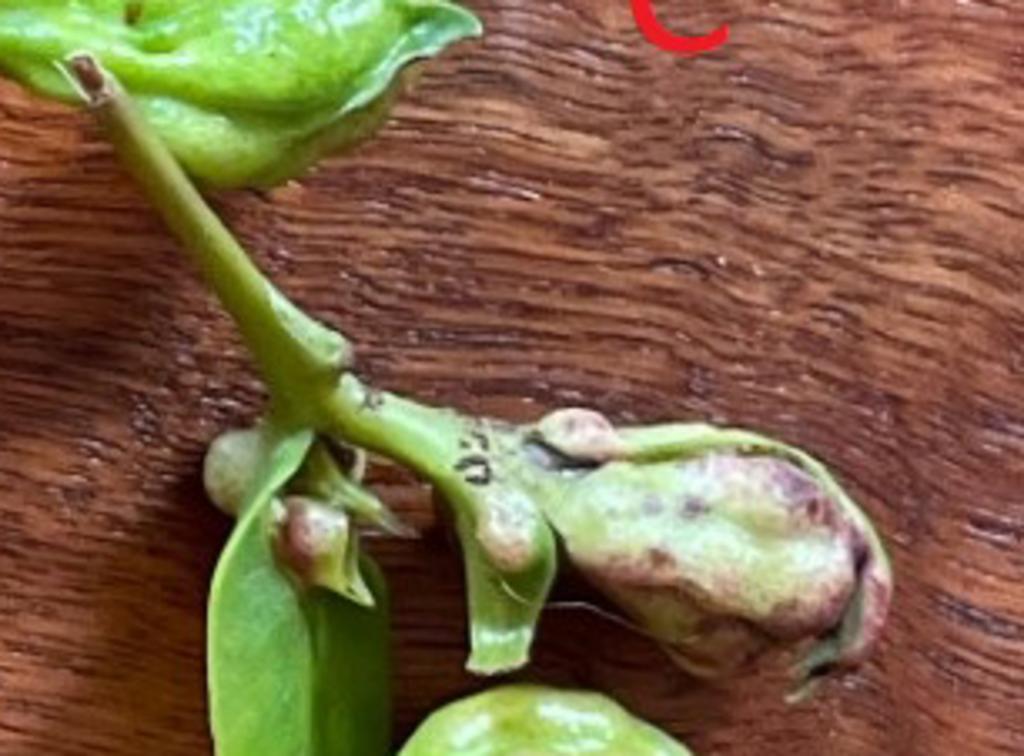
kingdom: Animalia
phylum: Arthropoda
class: Insecta
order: Diptera
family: Fergusoninidae
